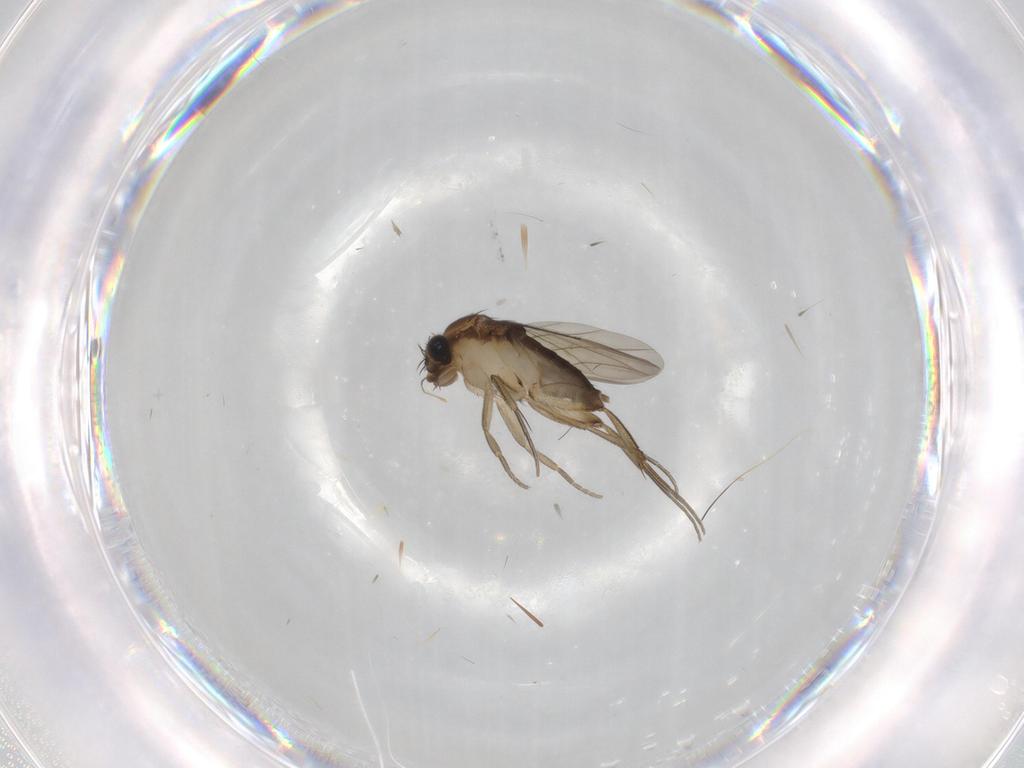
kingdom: Animalia
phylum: Arthropoda
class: Insecta
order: Diptera
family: Phoridae
